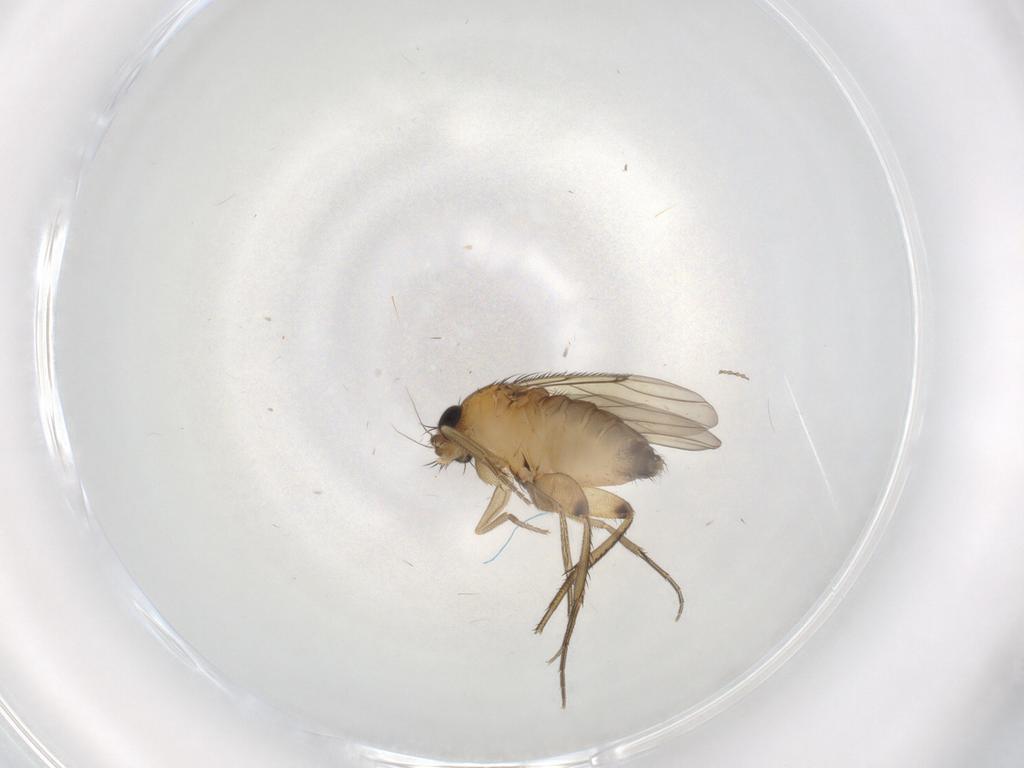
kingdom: Animalia
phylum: Arthropoda
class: Insecta
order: Diptera
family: Phoridae
